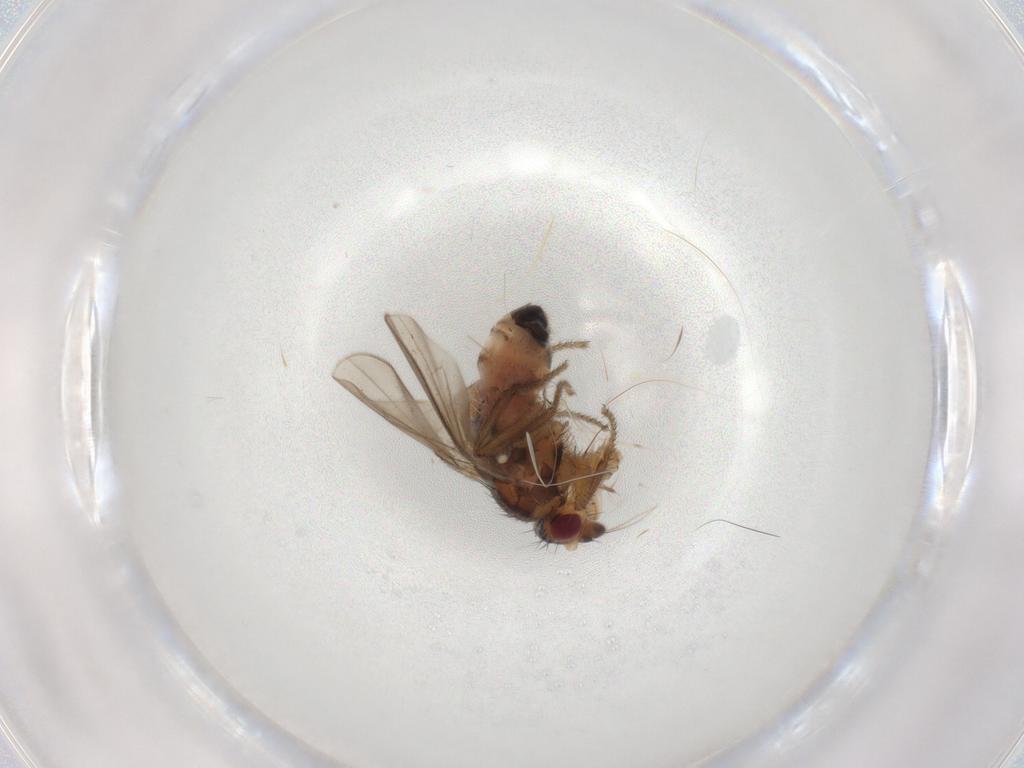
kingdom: Animalia
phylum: Arthropoda
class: Insecta
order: Diptera
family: Sphaeroceridae
